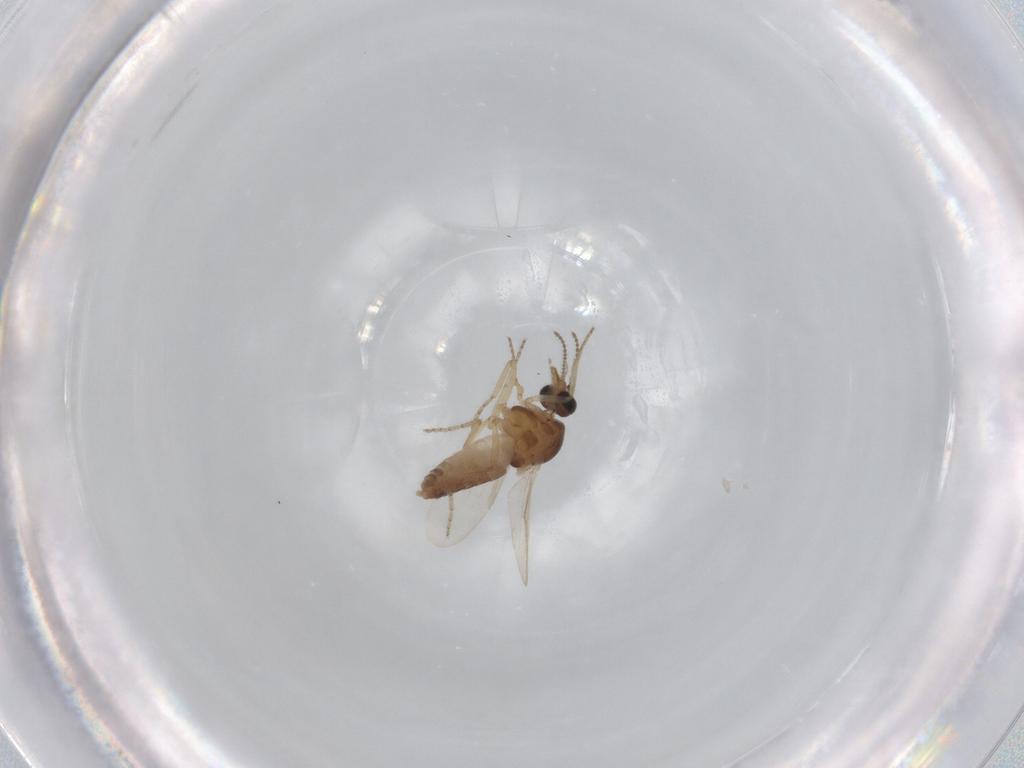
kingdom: Animalia
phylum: Arthropoda
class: Insecta
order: Diptera
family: Ceratopogonidae
